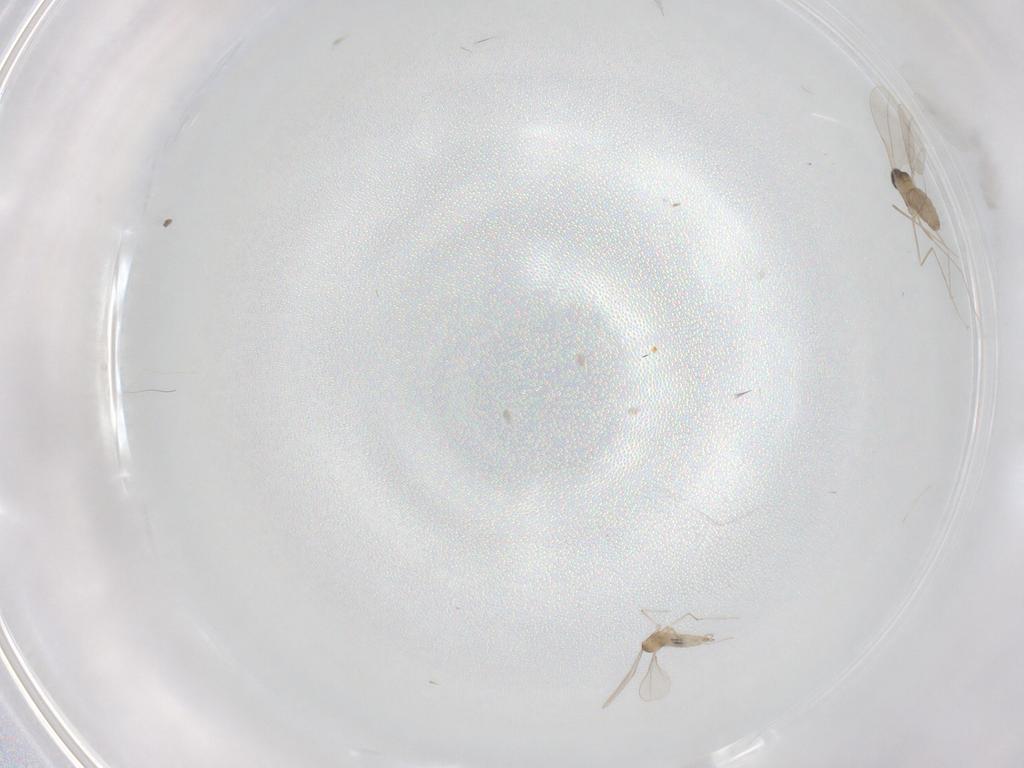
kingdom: Animalia
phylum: Arthropoda
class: Insecta
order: Diptera
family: Cecidomyiidae
